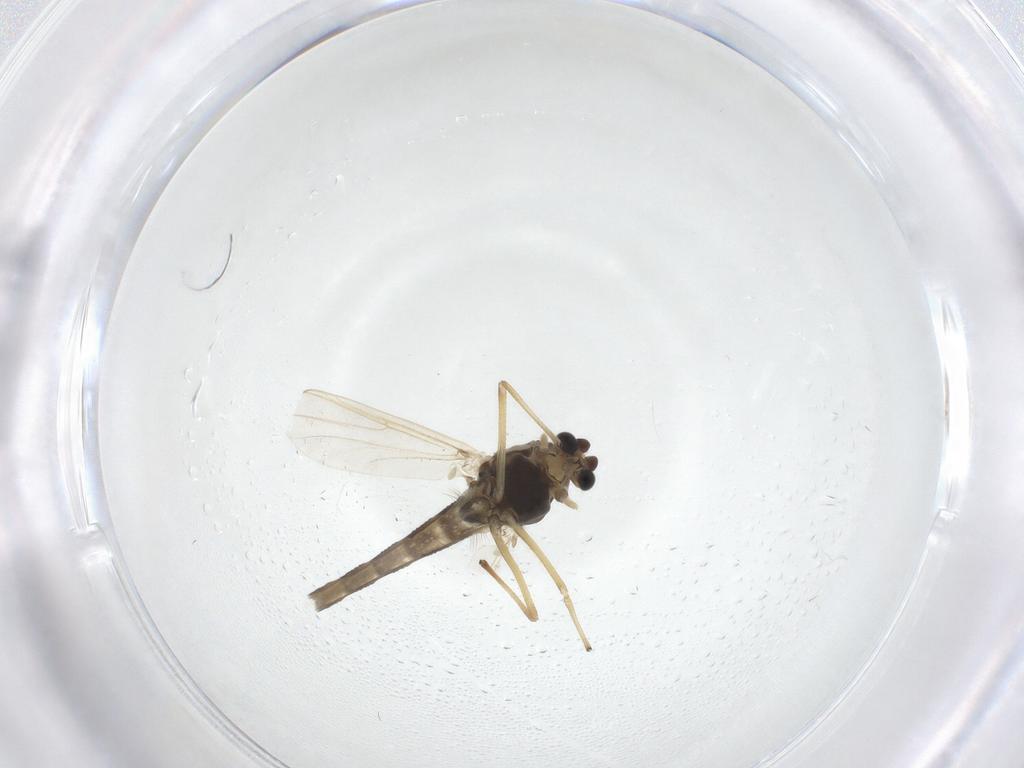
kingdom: Animalia
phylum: Arthropoda
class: Insecta
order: Diptera
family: Chironomidae
